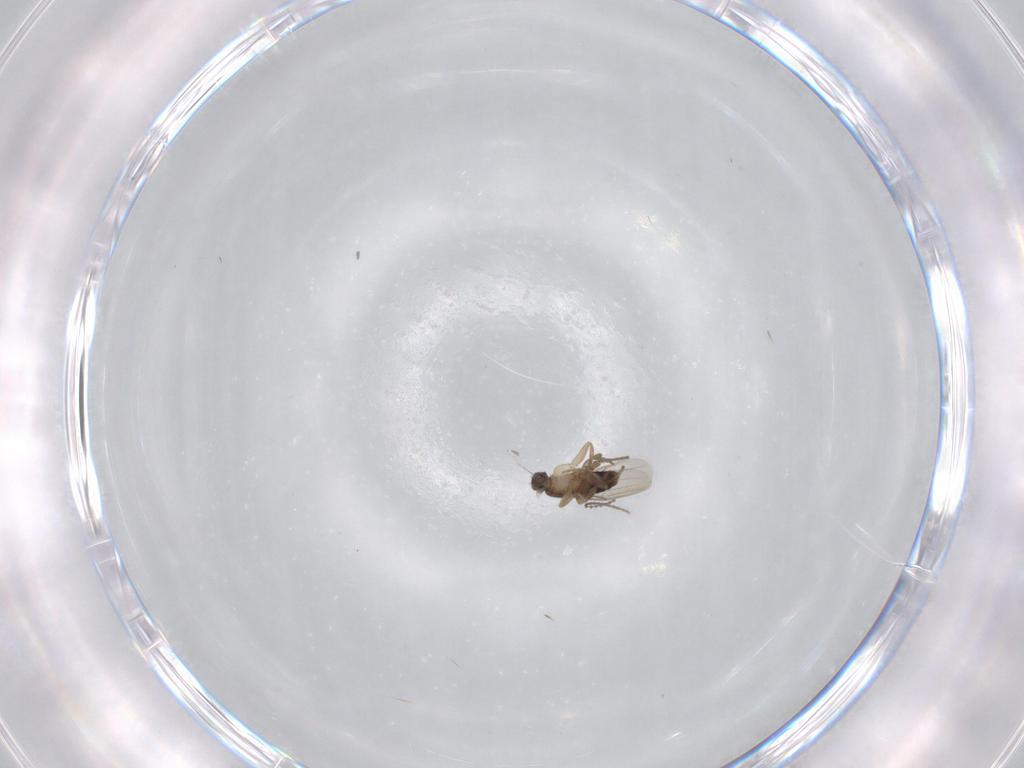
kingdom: Animalia
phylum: Arthropoda
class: Insecta
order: Diptera
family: Phoridae
